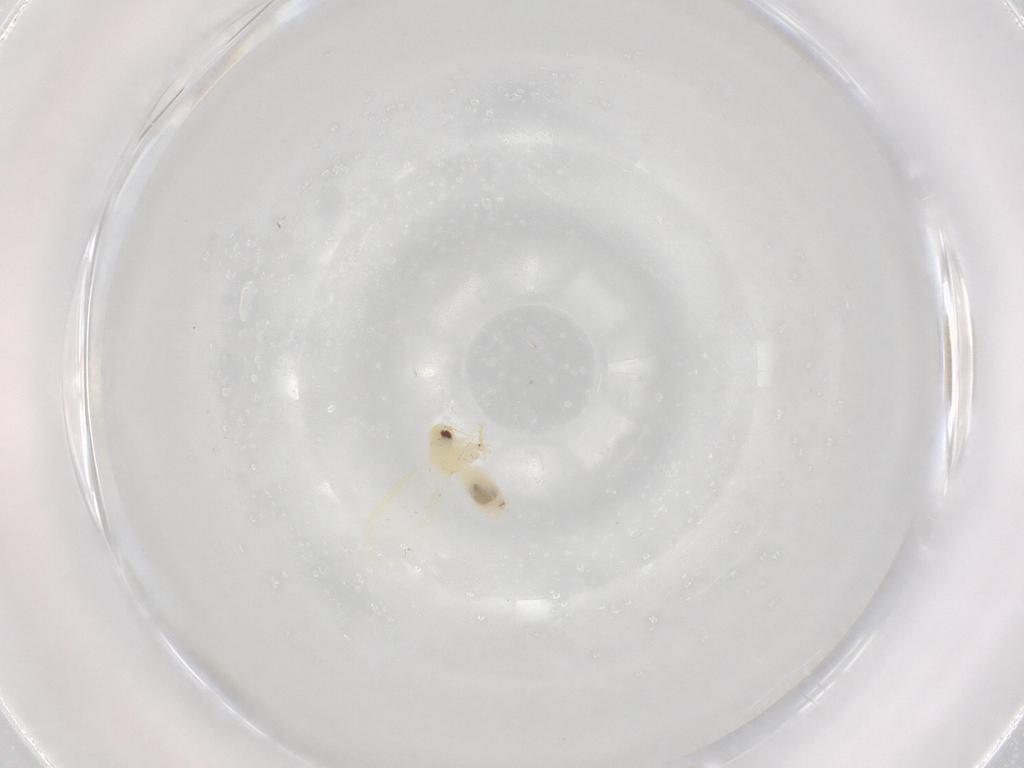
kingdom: Animalia
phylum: Arthropoda
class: Insecta
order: Hemiptera
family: Aleyrodidae
